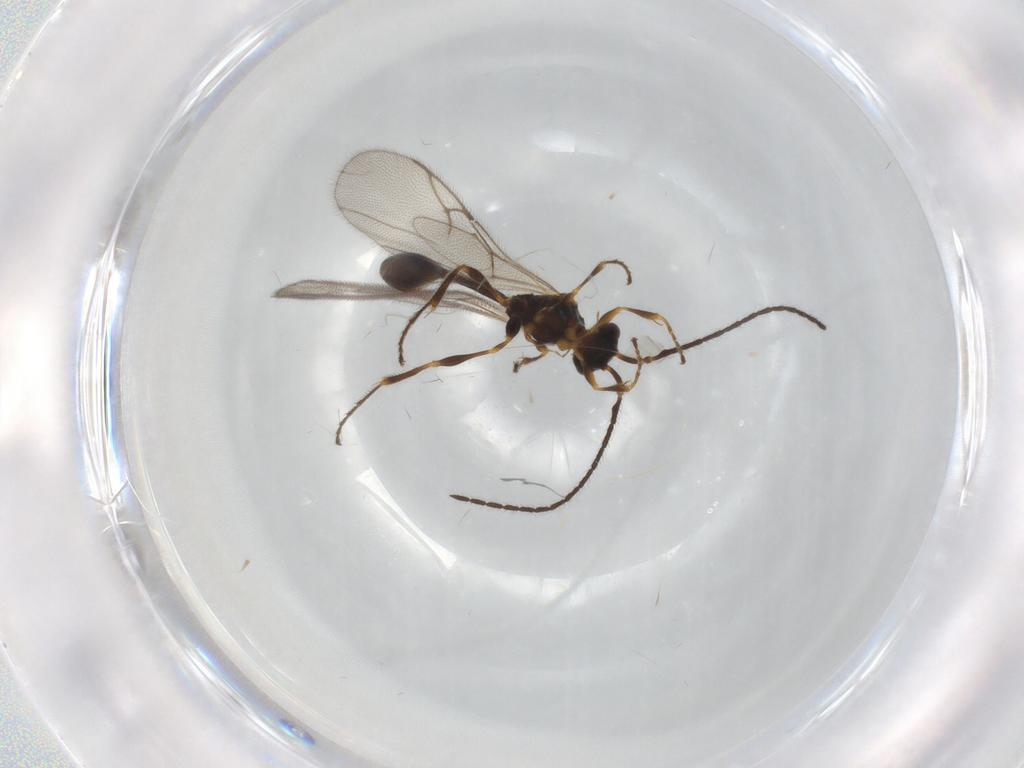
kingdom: Animalia
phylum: Arthropoda
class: Insecta
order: Hymenoptera
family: Diapriidae
